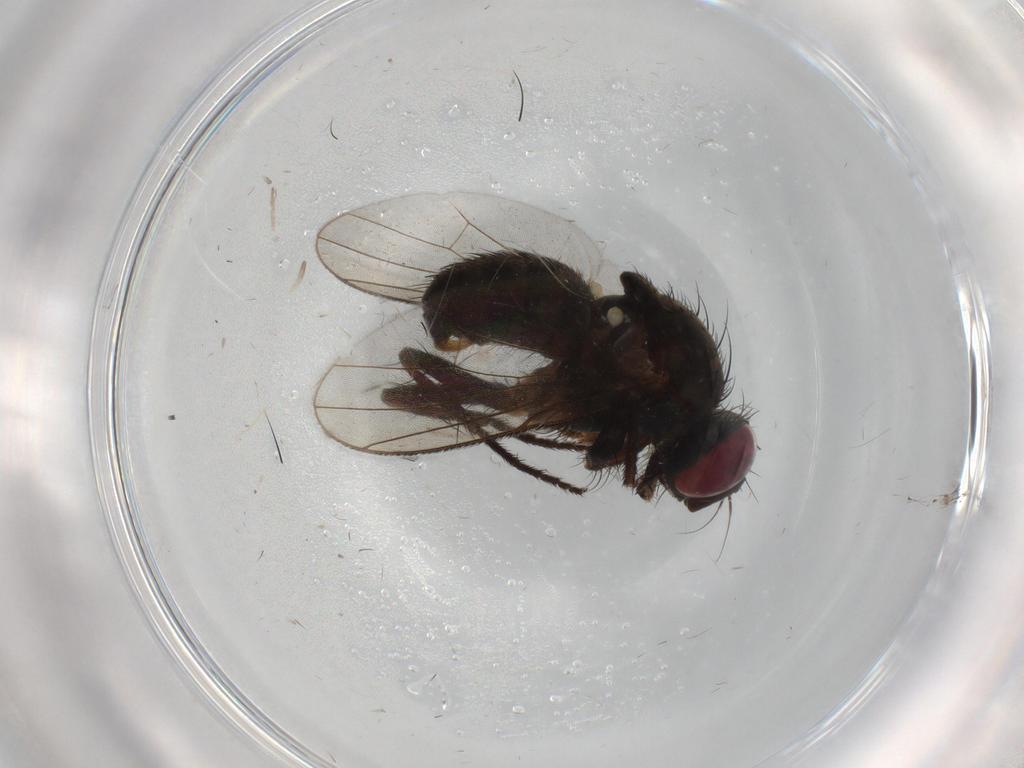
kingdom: Animalia
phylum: Arthropoda
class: Insecta
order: Diptera
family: Muscidae
